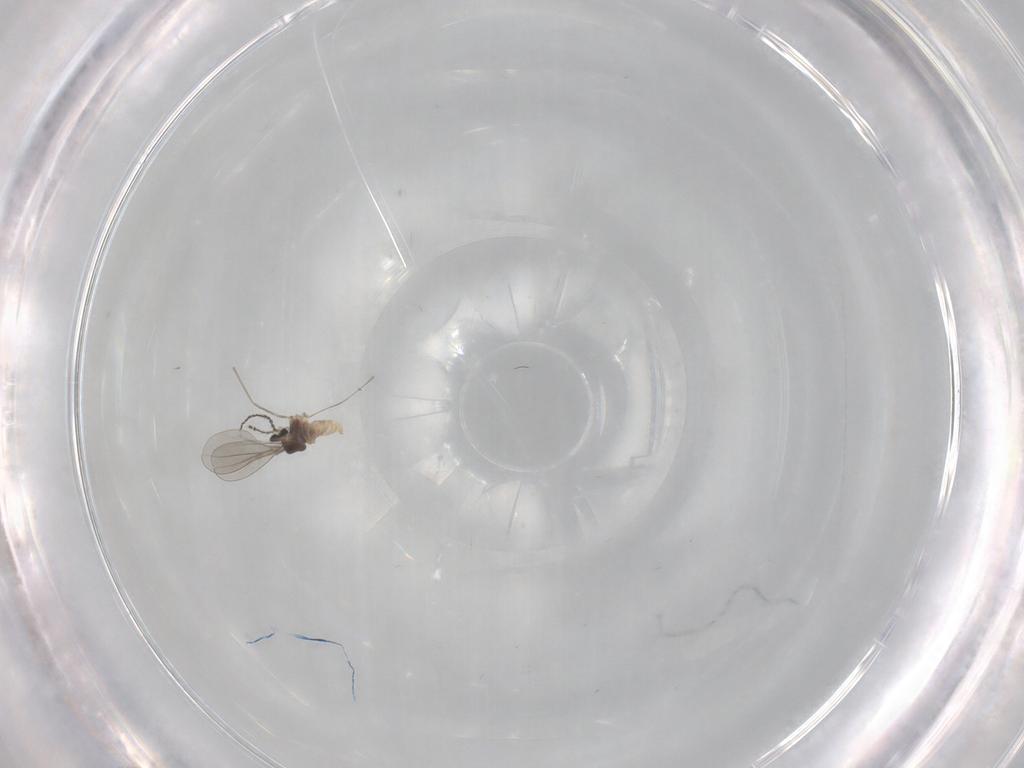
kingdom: Animalia
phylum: Arthropoda
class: Insecta
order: Diptera
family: Cecidomyiidae
